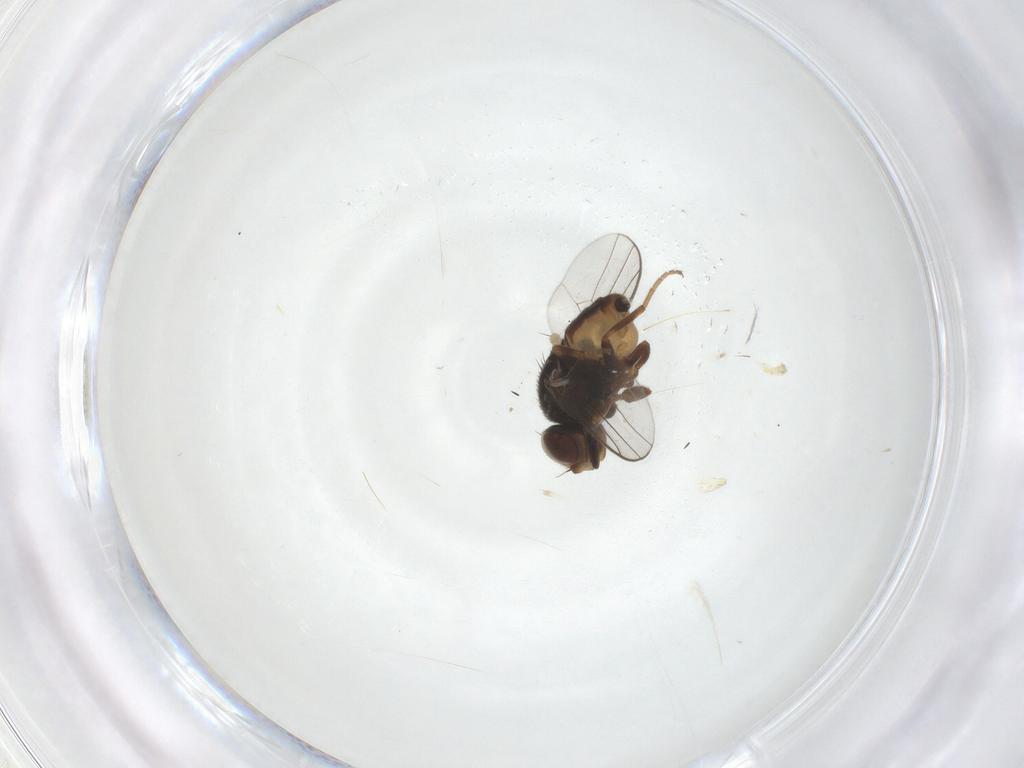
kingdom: Animalia
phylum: Arthropoda
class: Insecta
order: Diptera
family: Chloropidae
